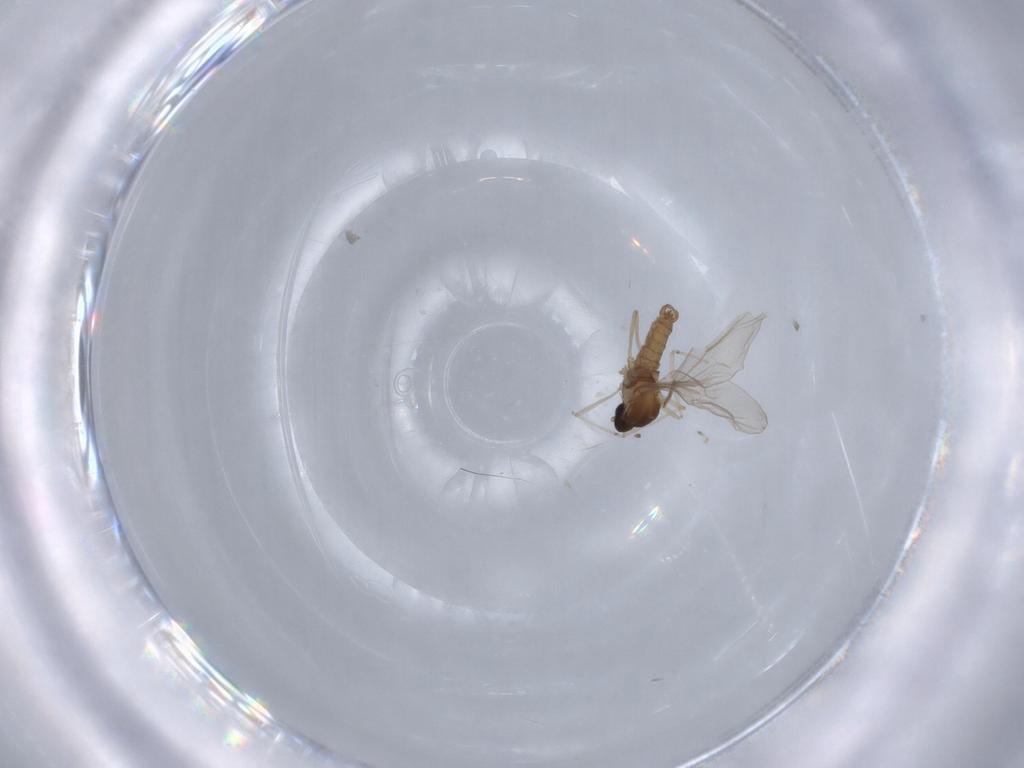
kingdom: Animalia
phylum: Arthropoda
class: Insecta
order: Diptera
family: Cecidomyiidae
